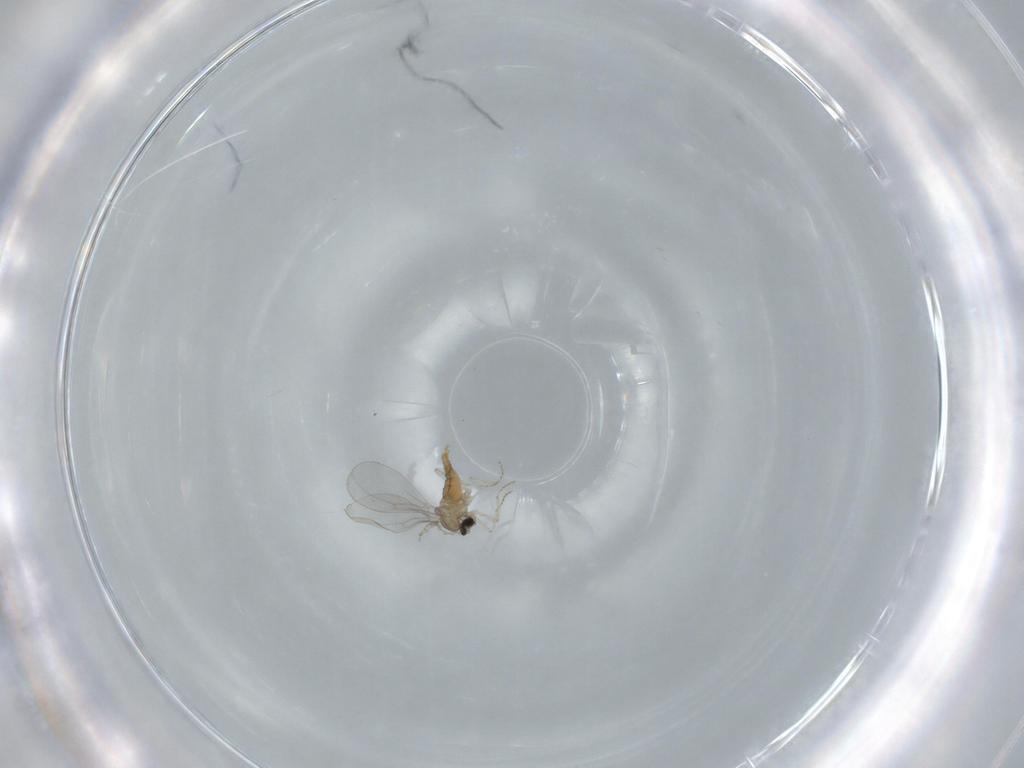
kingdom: Animalia
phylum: Arthropoda
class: Insecta
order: Diptera
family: Cecidomyiidae
